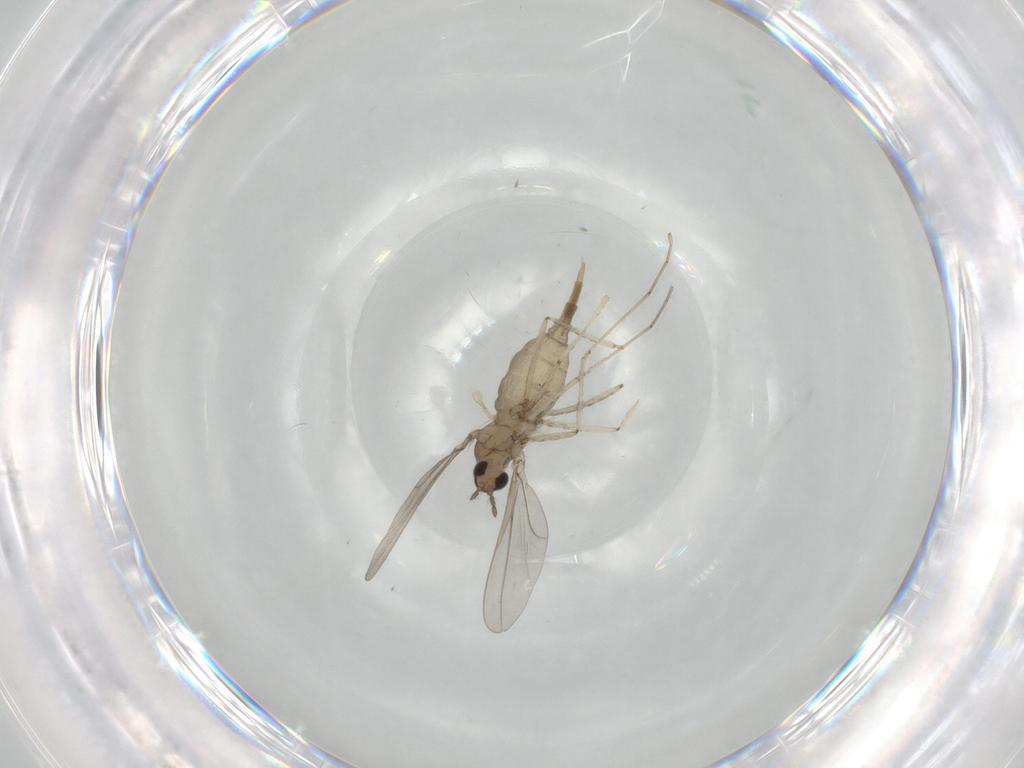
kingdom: Animalia
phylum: Arthropoda
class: Insecta
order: Diptera
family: Cecidomyiidae
